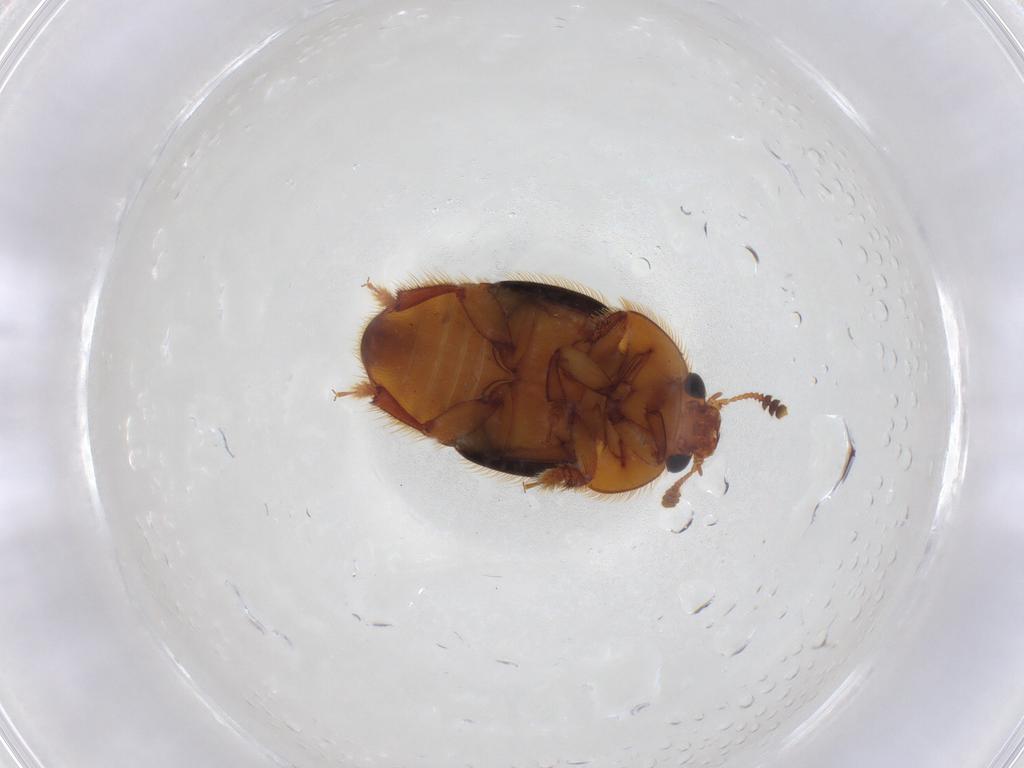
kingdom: Animalia
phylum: Arthropoda
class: Insecta
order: Coleoptera
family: Nitidulidae
